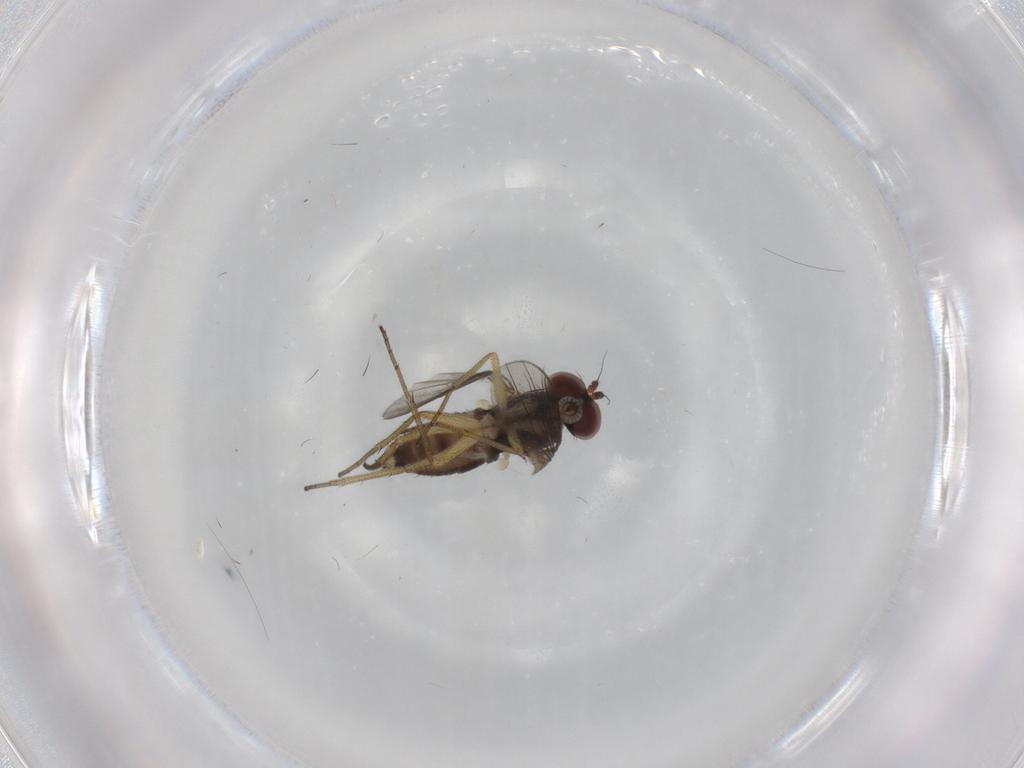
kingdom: Animalia
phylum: Arthropoda
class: Insecta
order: Diptera
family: Dolichopodidae
